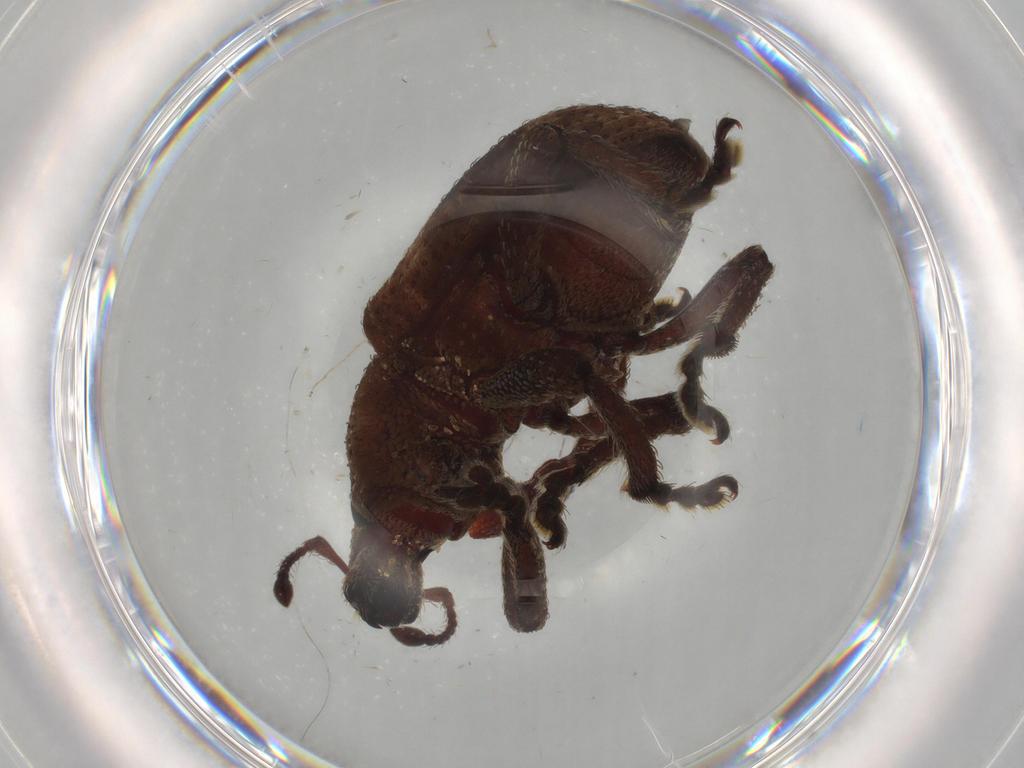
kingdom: Animalia
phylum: Arthropoda
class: Insecta
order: Coleoptera
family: Curculionidae
